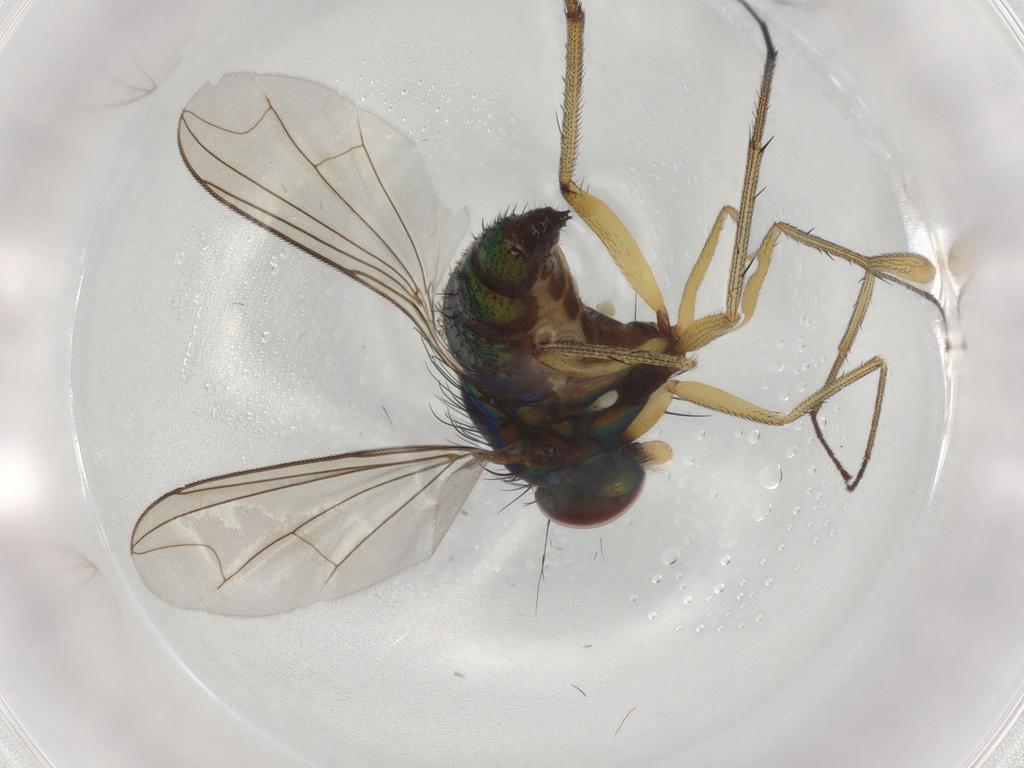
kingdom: Animalia
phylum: Arthropoda
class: Insecta
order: Diptera
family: Dolichopodidae
